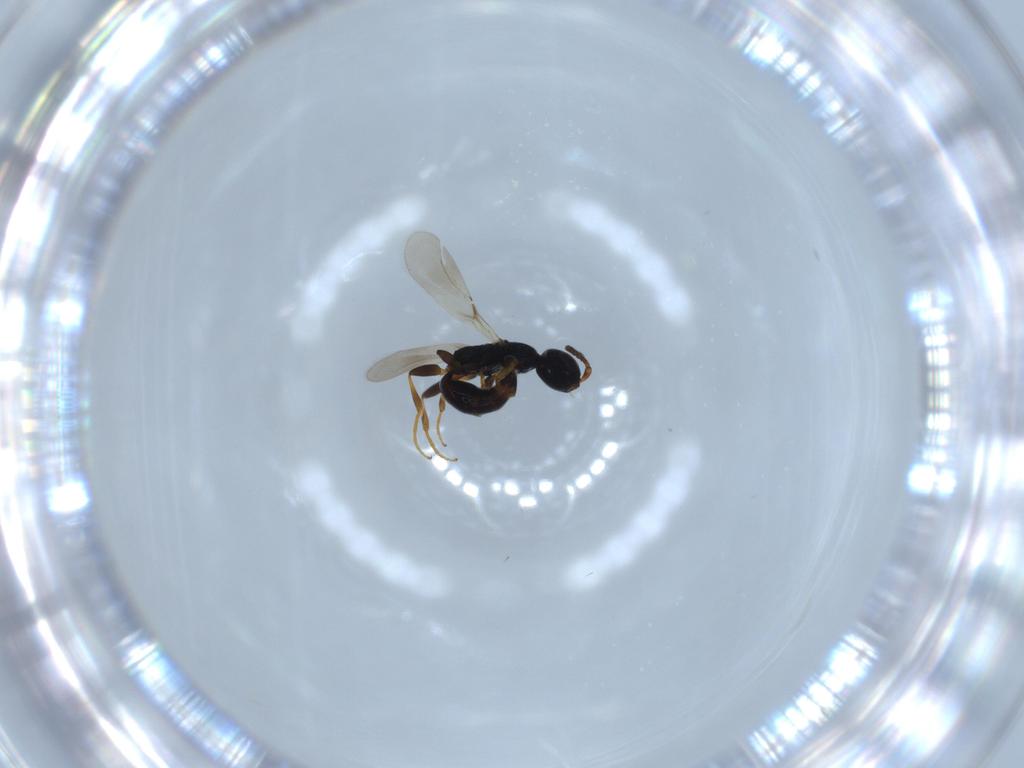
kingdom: Animalia
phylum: Arthropoda
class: Insecta
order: Hymenoptera
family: Bethylidae
